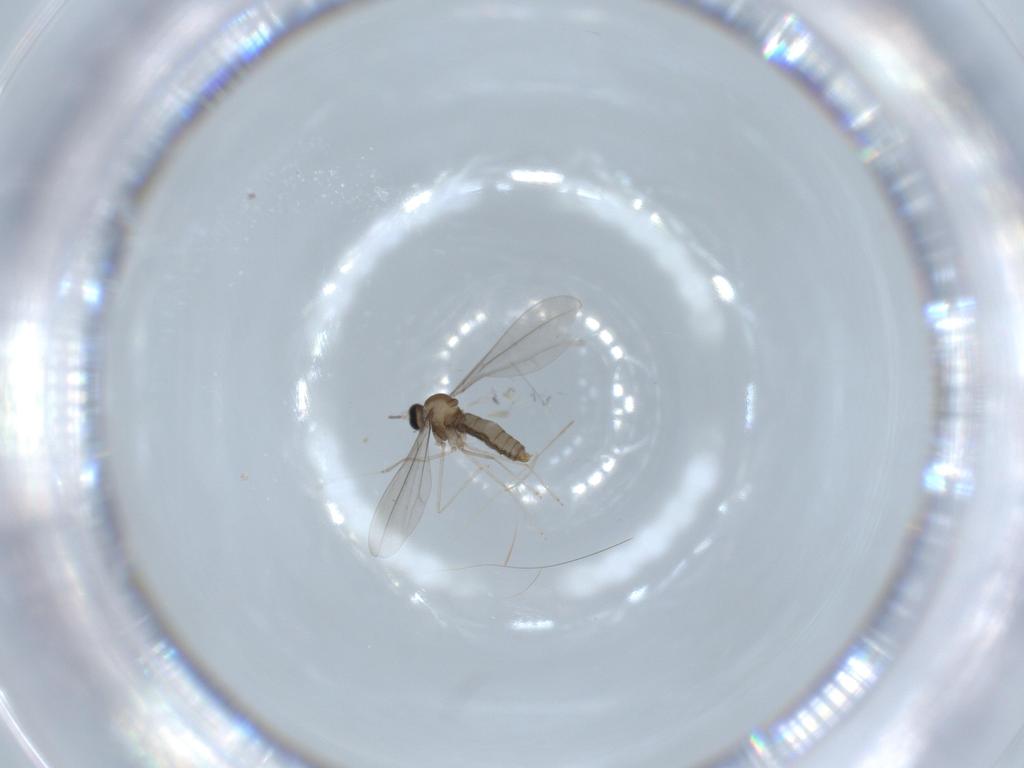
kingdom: Animalia
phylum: Arthropoda
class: Insecta
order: Diptera
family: Cecidomyiidae
